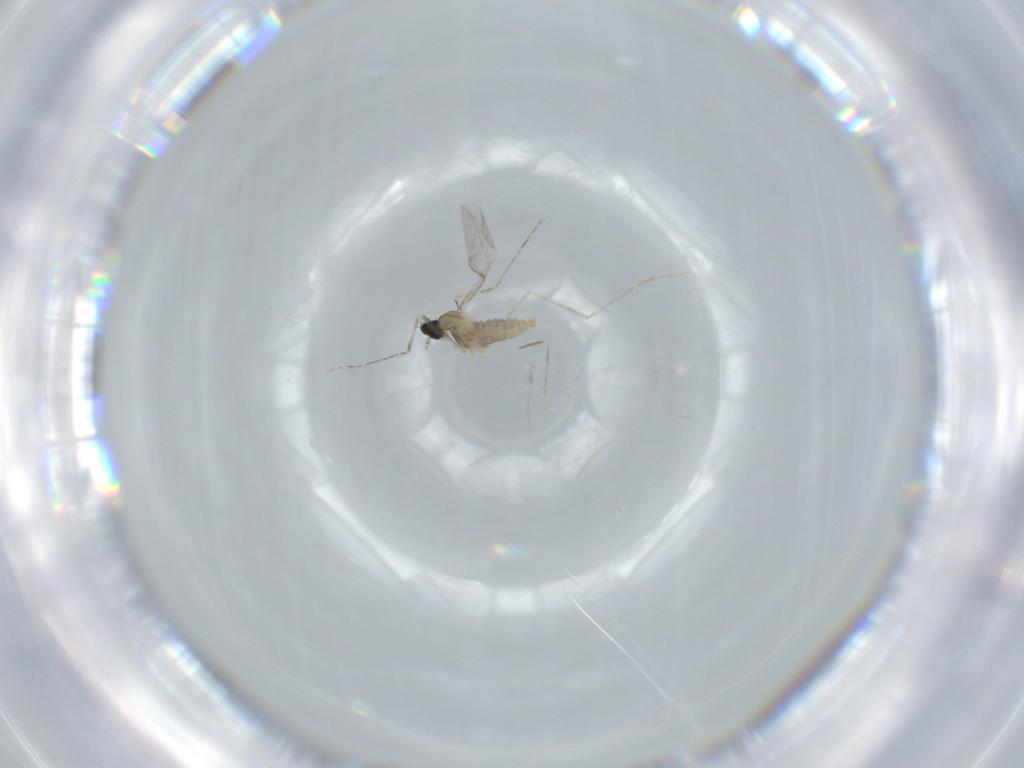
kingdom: Animalia
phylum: Arthropoda
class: Insecta
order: Diptera
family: Cecidomyiidae
